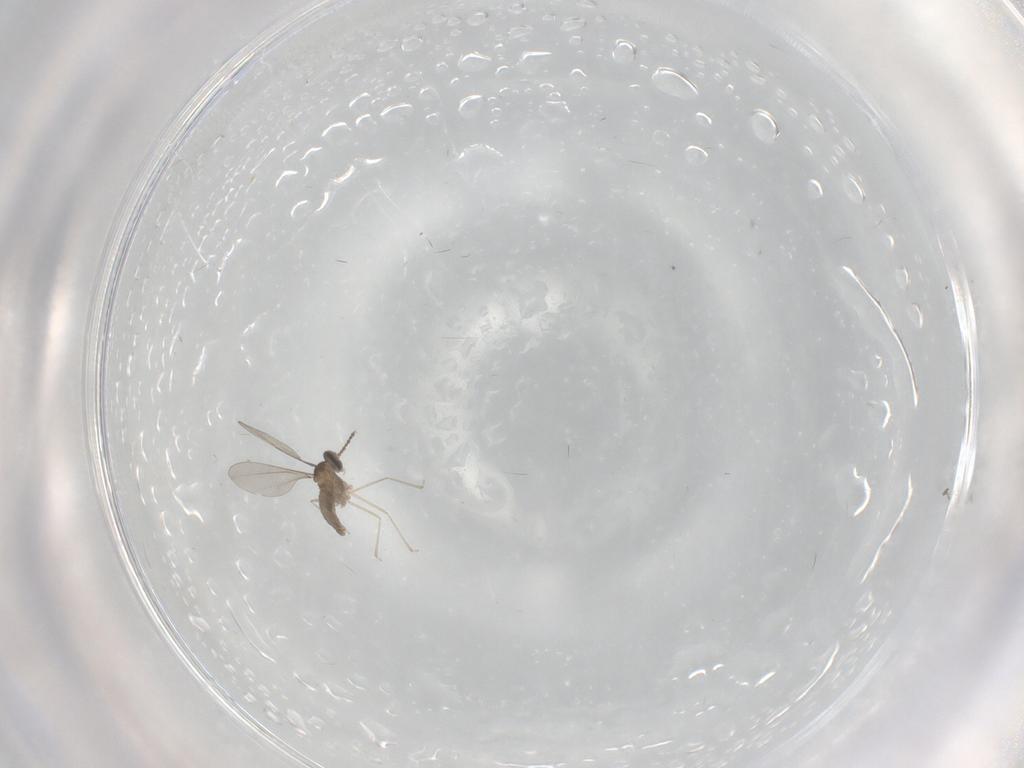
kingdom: Animalia
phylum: Arthropoda
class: Insecta
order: Diptera
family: Cecidomyiidae
